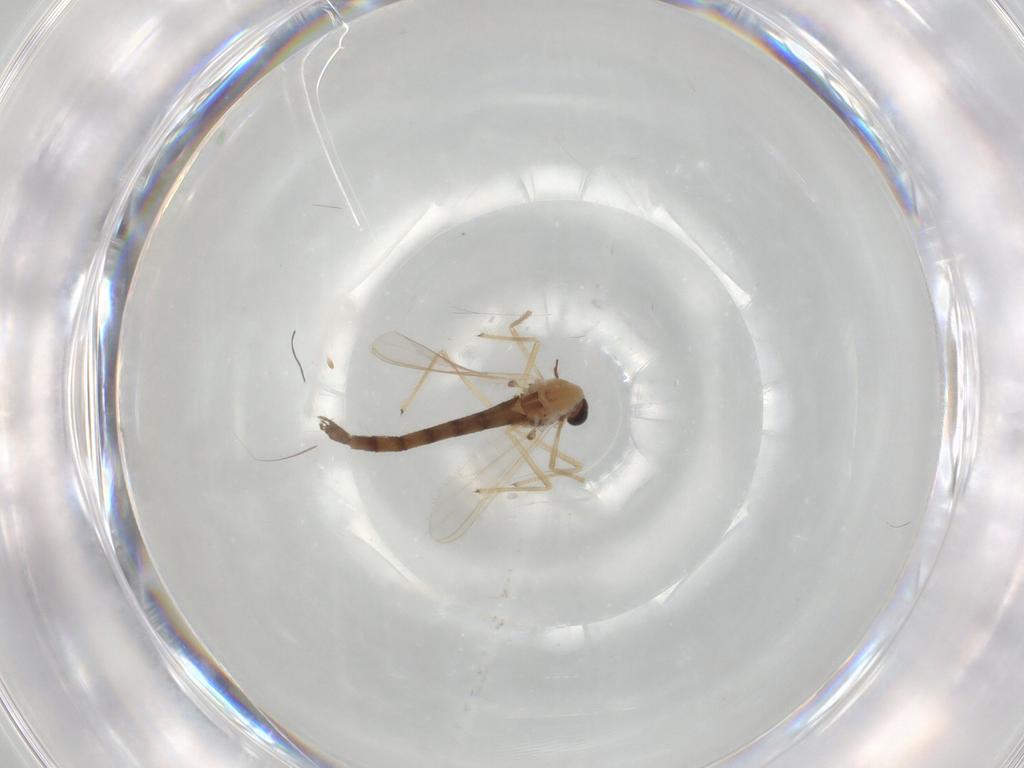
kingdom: Animalia
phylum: Arthropoda
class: Insecta
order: Diptera
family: Chironomidae
